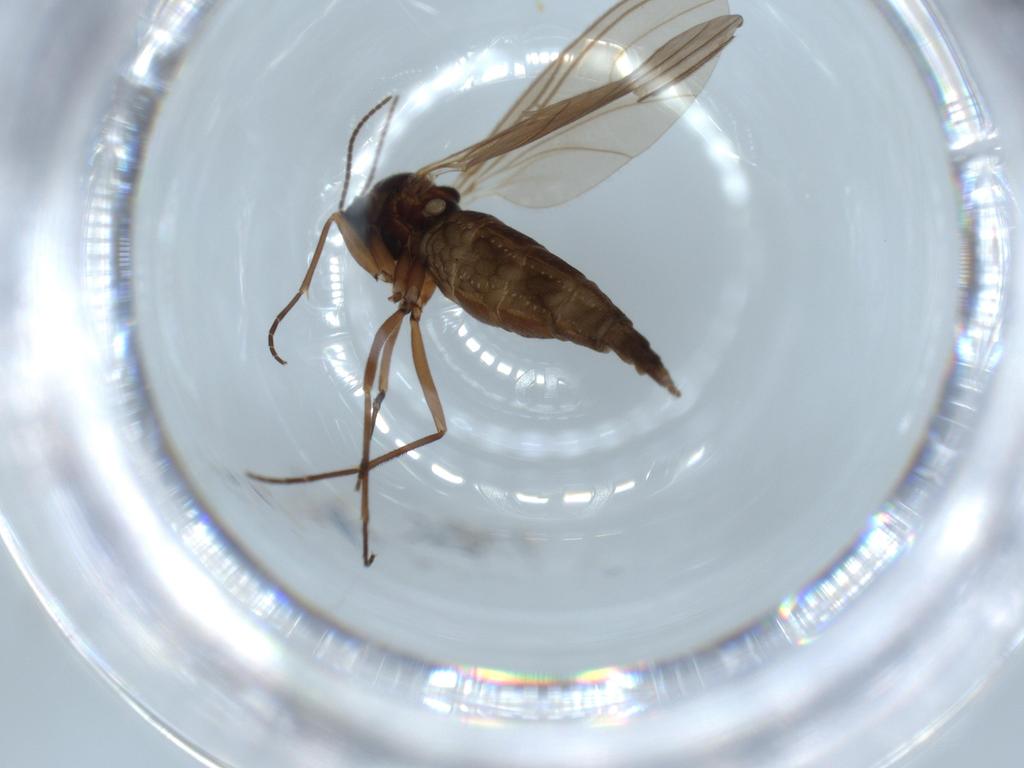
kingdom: Animalia
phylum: Arthropoda
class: Insecta
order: Diptera
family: Sciaridae
